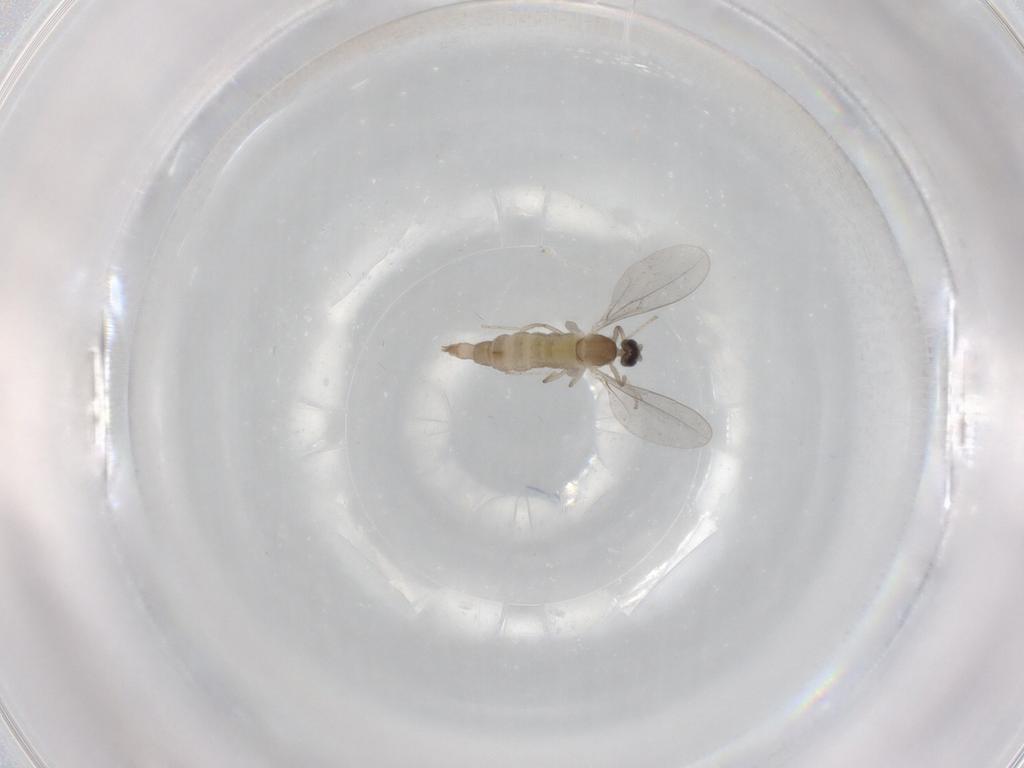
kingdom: Animalia
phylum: Arthropoda
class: Insecta
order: Diptera
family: Cecidomyiidae
